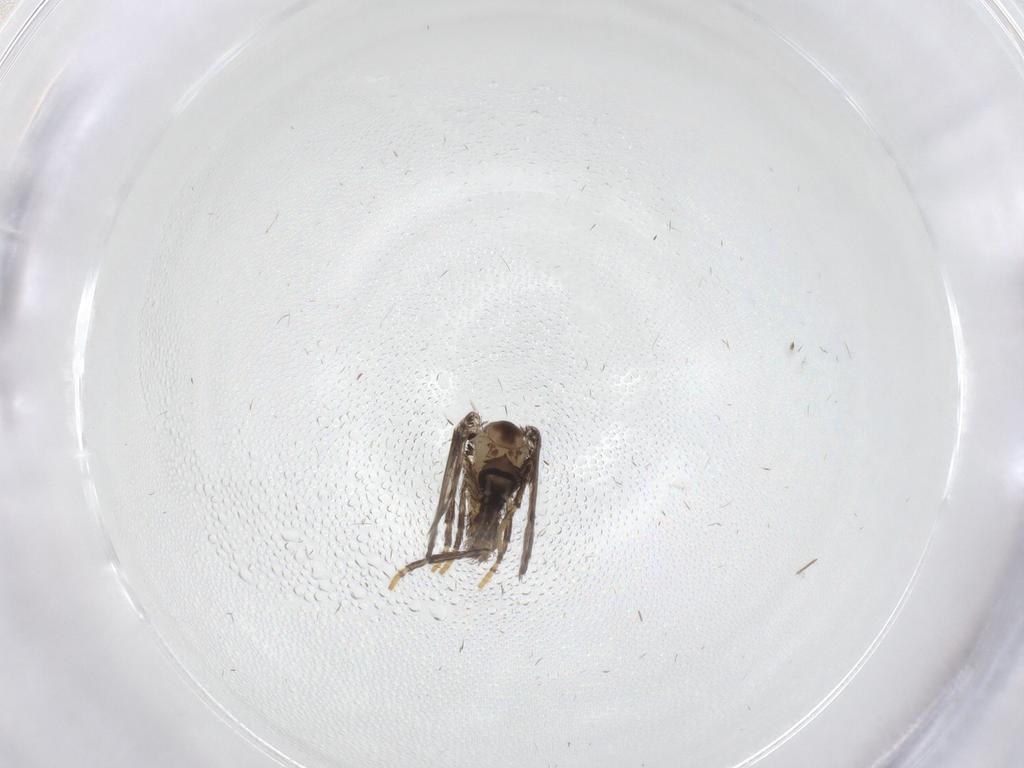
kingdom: Animalia
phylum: Arthropoda
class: Insecta
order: Diptera
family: Psychodidae
